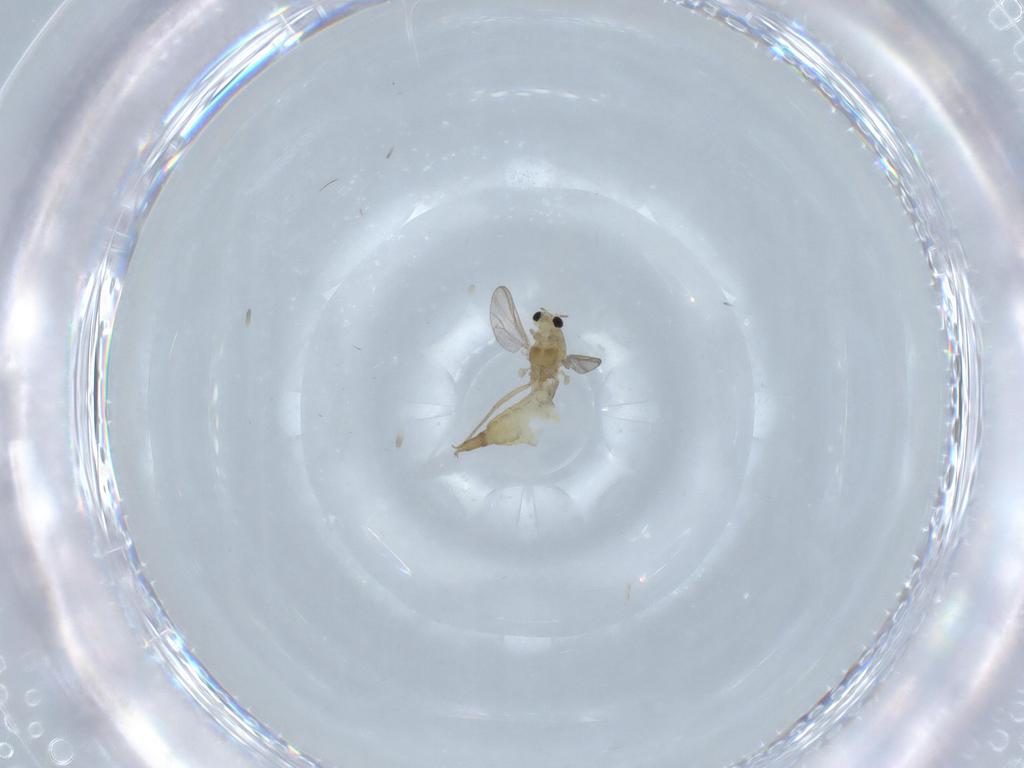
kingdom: Animalia
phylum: Arthropoda
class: Insecta
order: Diptera
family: Chironomidae
